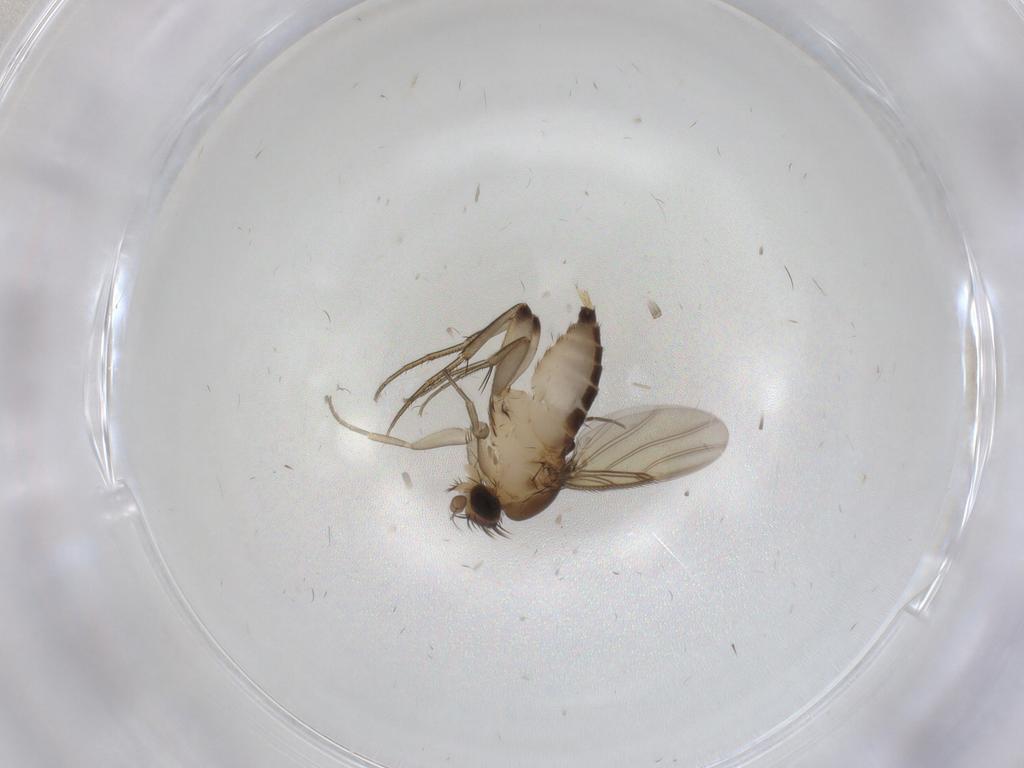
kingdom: Animalia
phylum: Arthropoda
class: Insecta
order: Diptera
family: Phoridae
